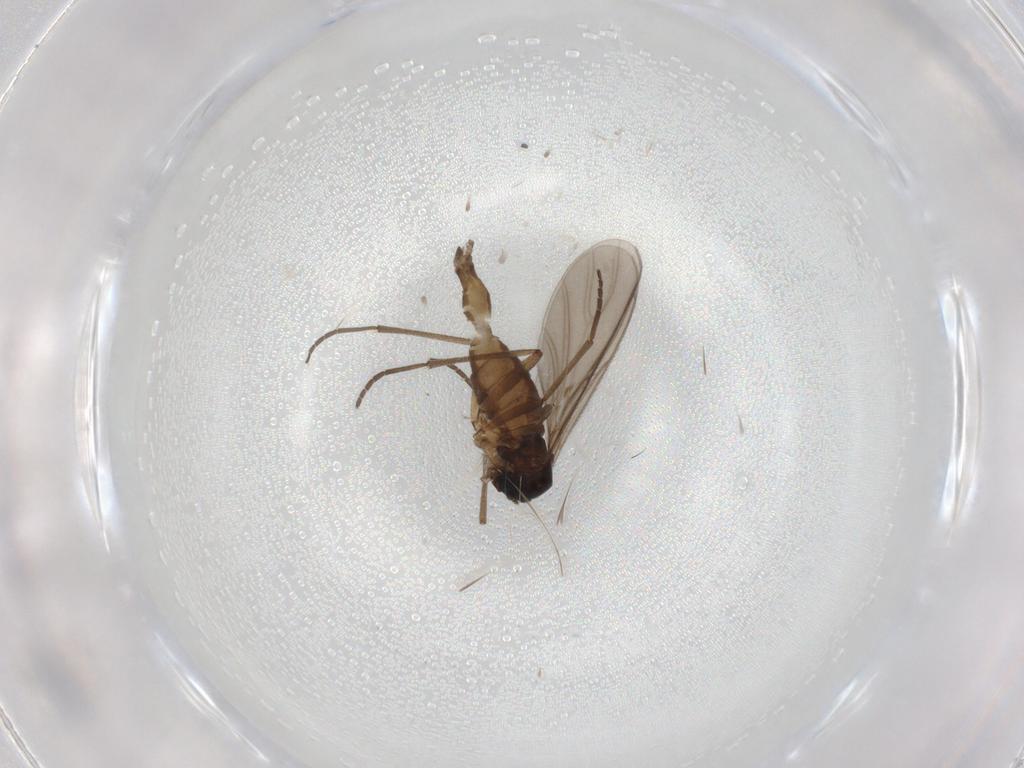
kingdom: Animalia
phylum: Arthropoda
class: Insecta
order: Diptera
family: Sciaridae
